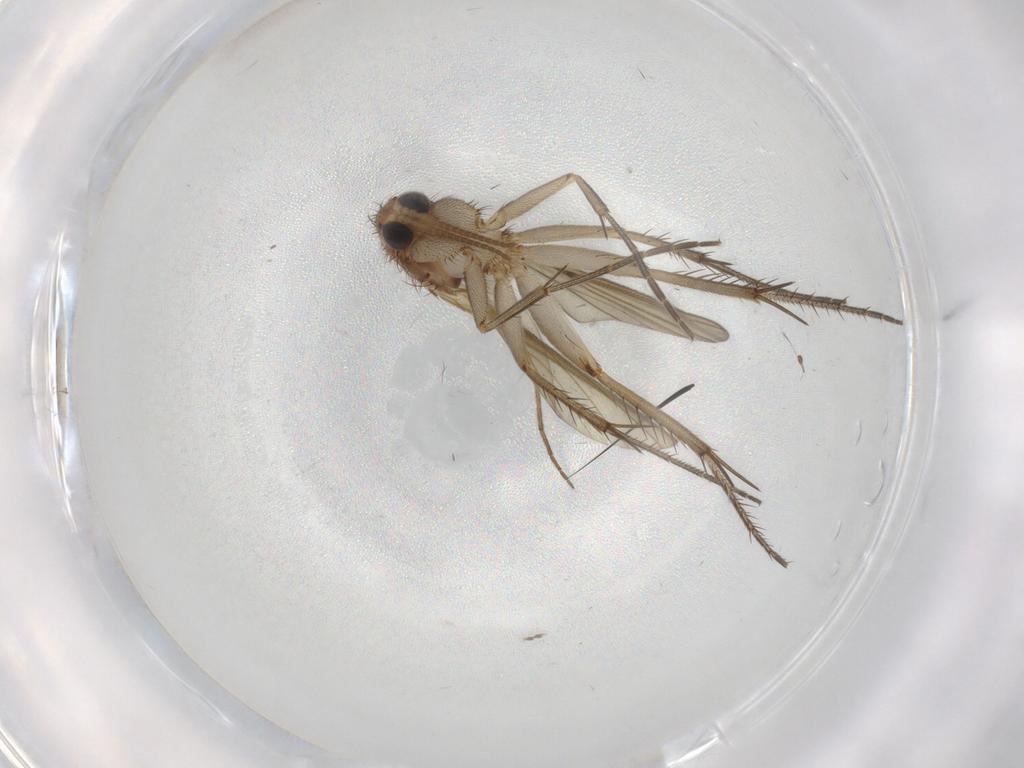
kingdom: Animalia
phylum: Arthropoda
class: Insecta
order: Diptera
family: Chironomidae
